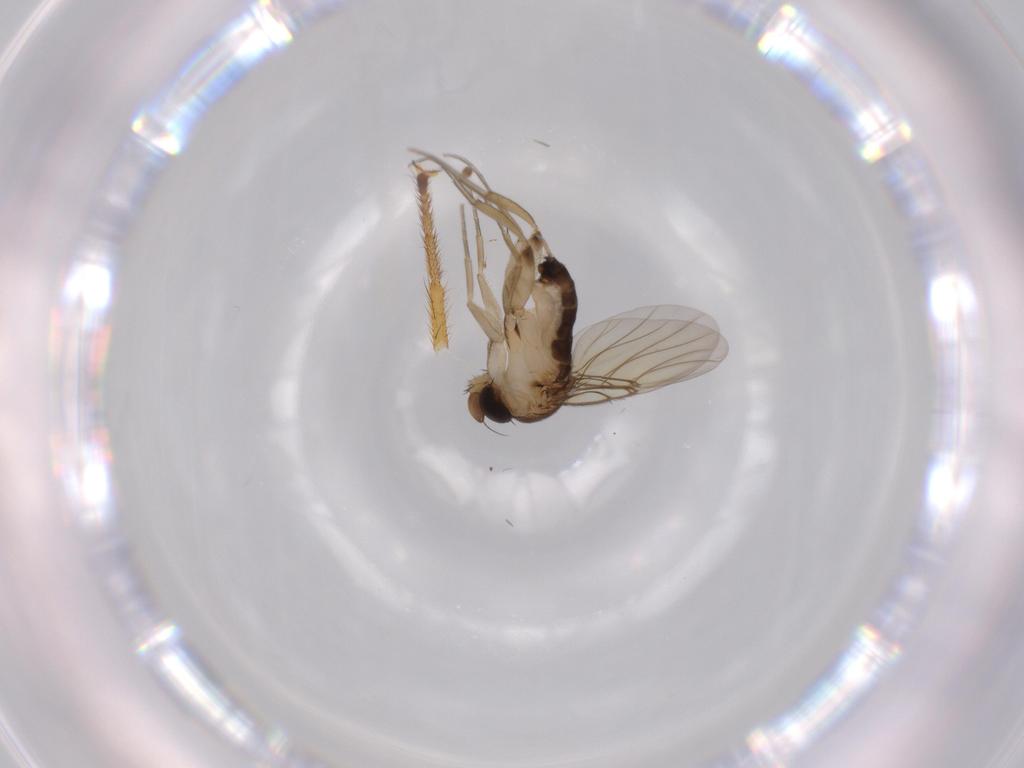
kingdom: Animalia
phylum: Arthropoda
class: Insecta
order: Diptera
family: Phoridae
